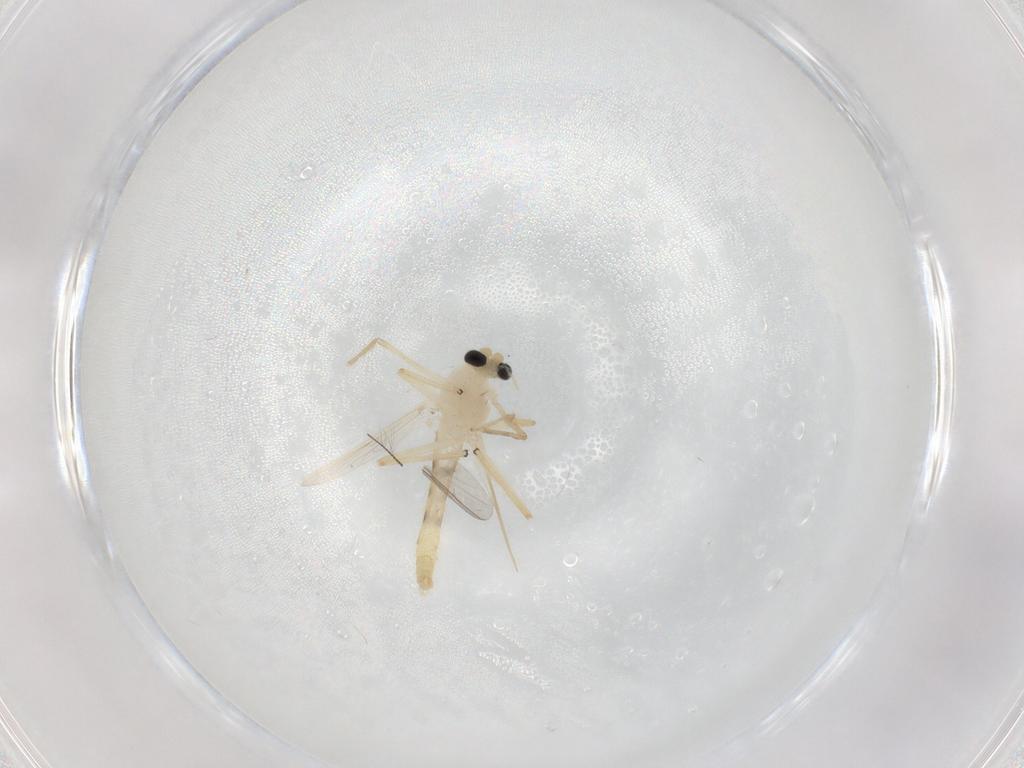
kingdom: Animalia
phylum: Arthropoda
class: Insecta
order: Diptera
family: Chironomidae
